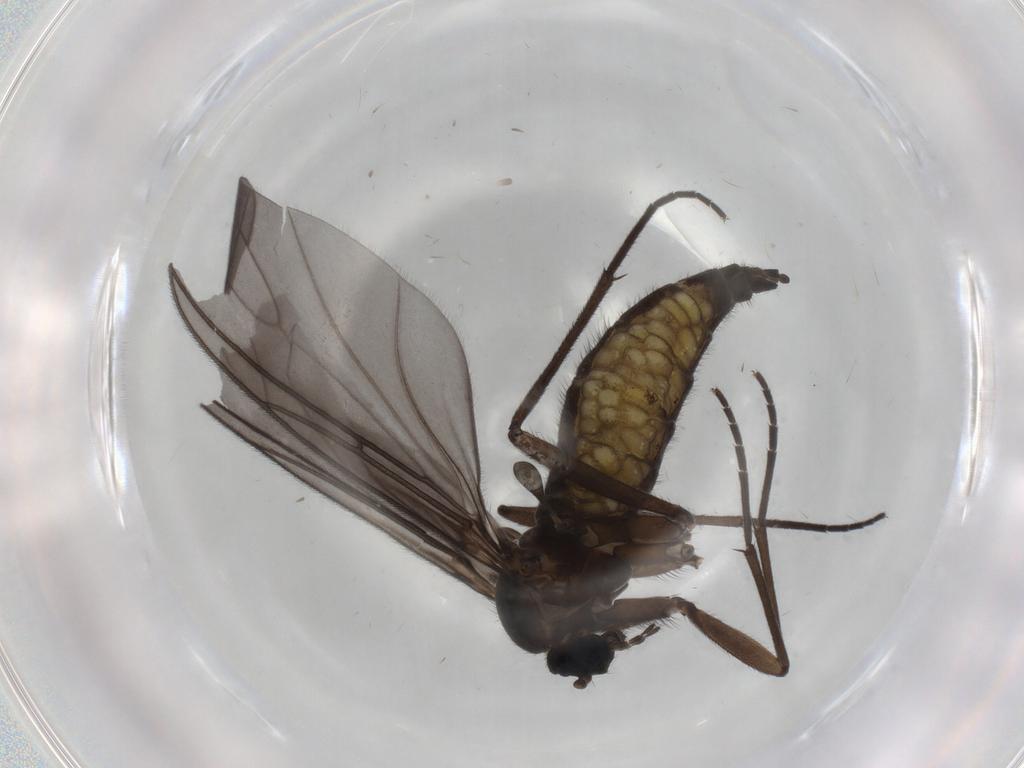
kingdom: Animalia
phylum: Arthropoda
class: Insecta
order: Diptera
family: Sciaridae
